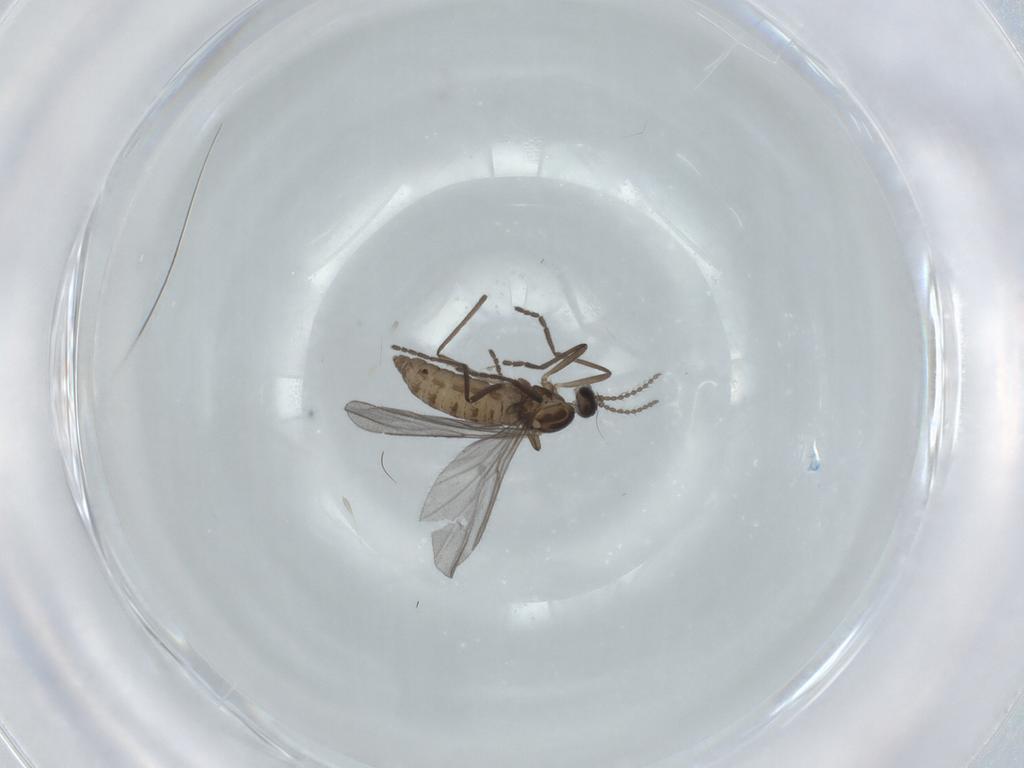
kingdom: Animalia
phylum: Arthropoda
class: Insecta
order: Diptera
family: Cecidomyiidae
